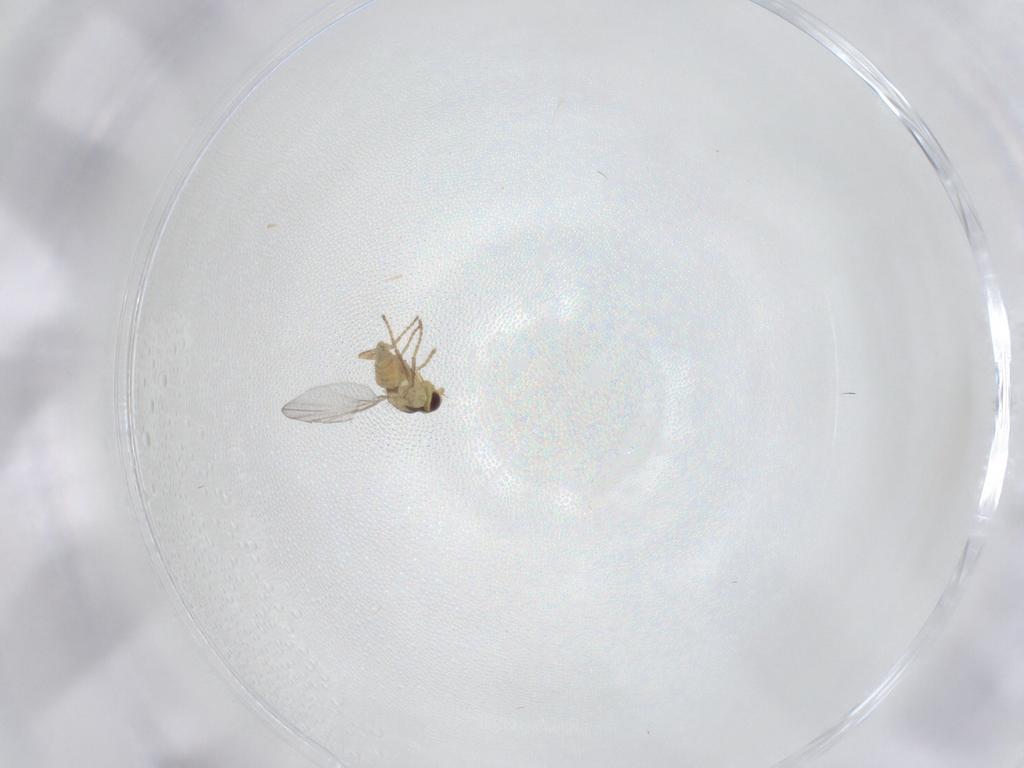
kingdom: Animalia
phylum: Arthropoda
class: Insecta
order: Diptera
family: Agromyzidae
